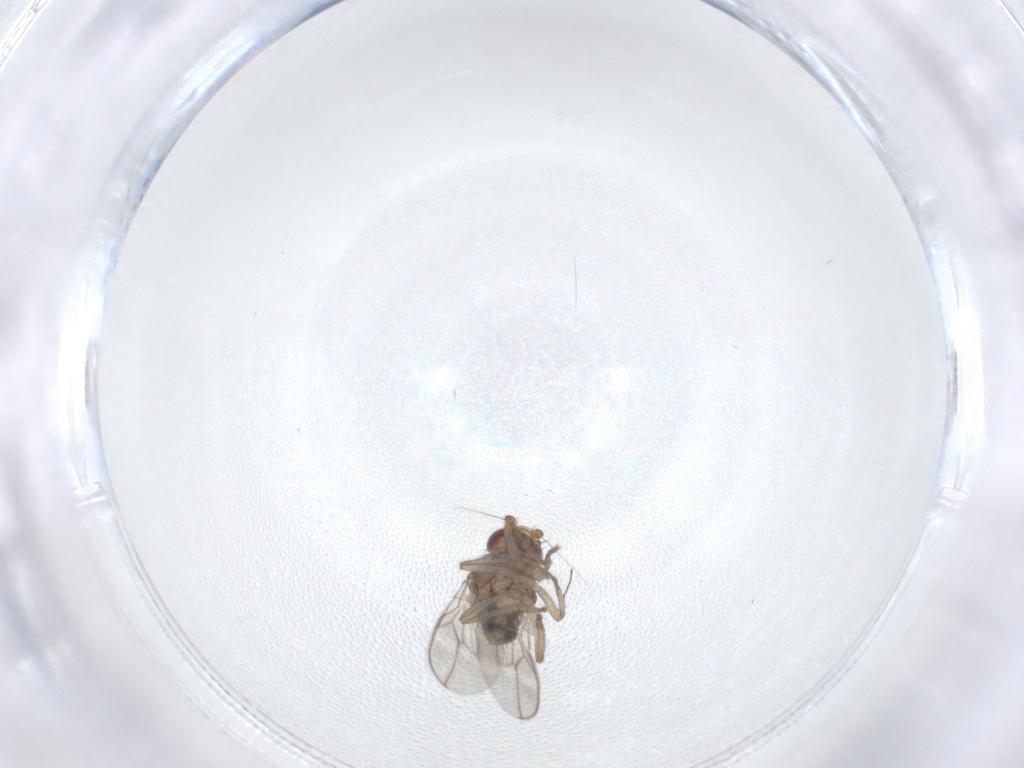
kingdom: Animalia
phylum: Arthropoda
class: Insecta
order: Diptera
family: Sphaeroceridae
